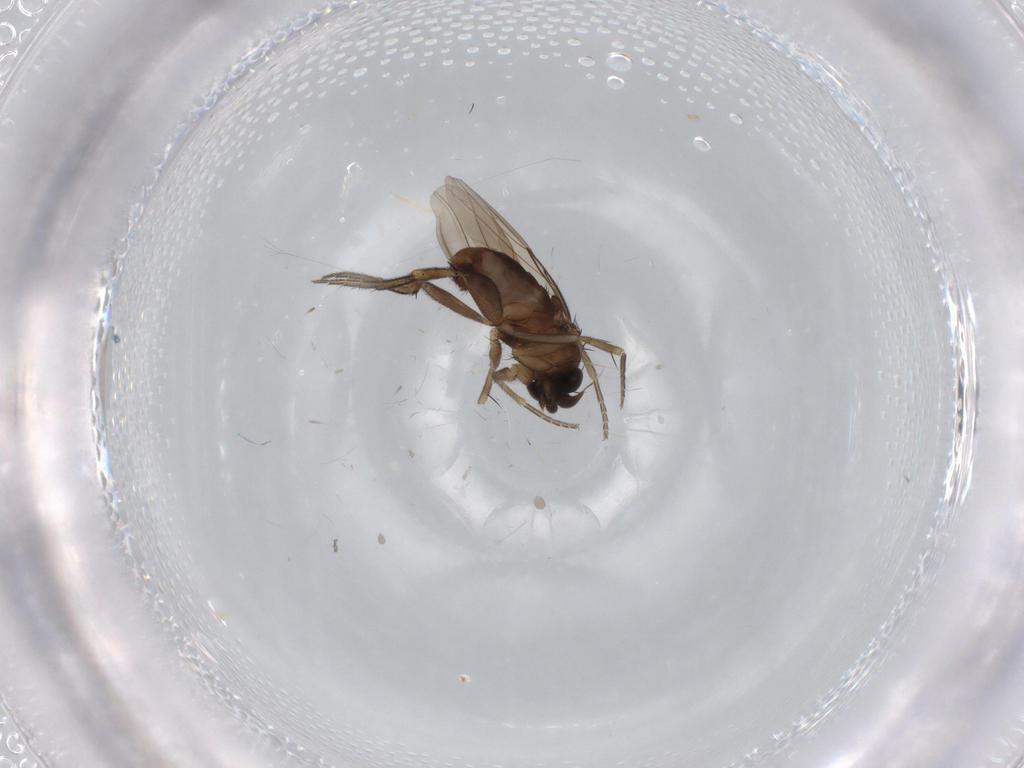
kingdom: Animalia
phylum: Arthropoda
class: Insecta
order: Diptera
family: Phoridae
